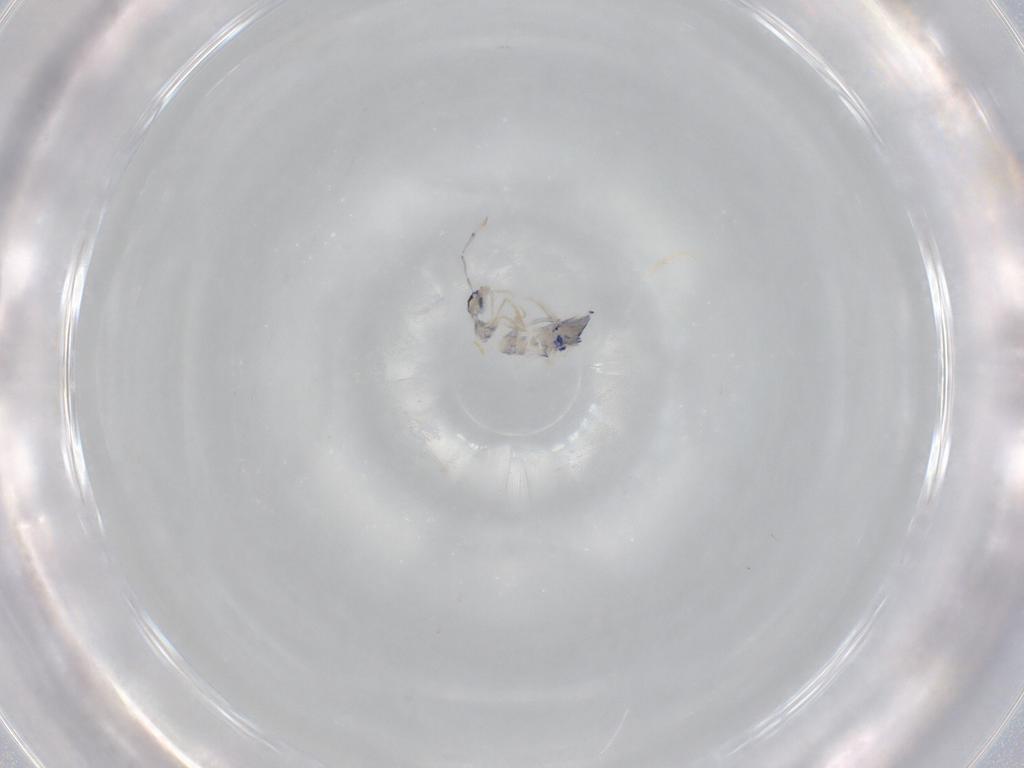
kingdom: Animalia
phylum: Arthropoda
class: Collembola
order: Entomobryomorpha
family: Entomobryidae
